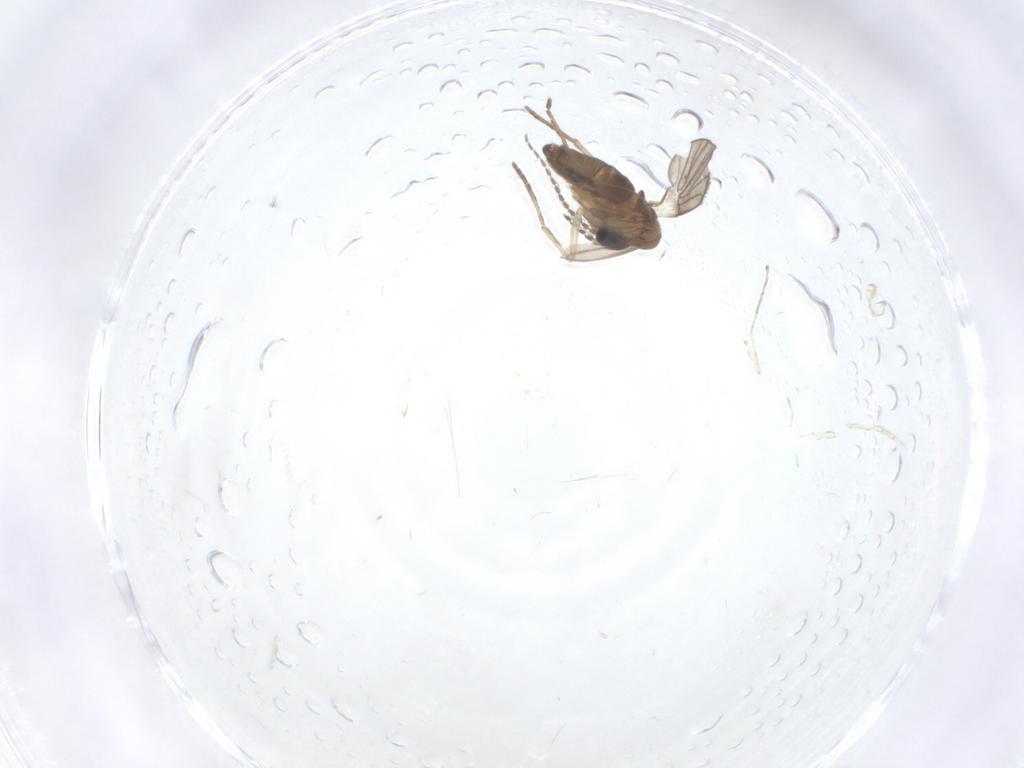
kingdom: Animalia
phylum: Arthropoda
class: Insecta
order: Diptera
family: Cecidomyiidae
